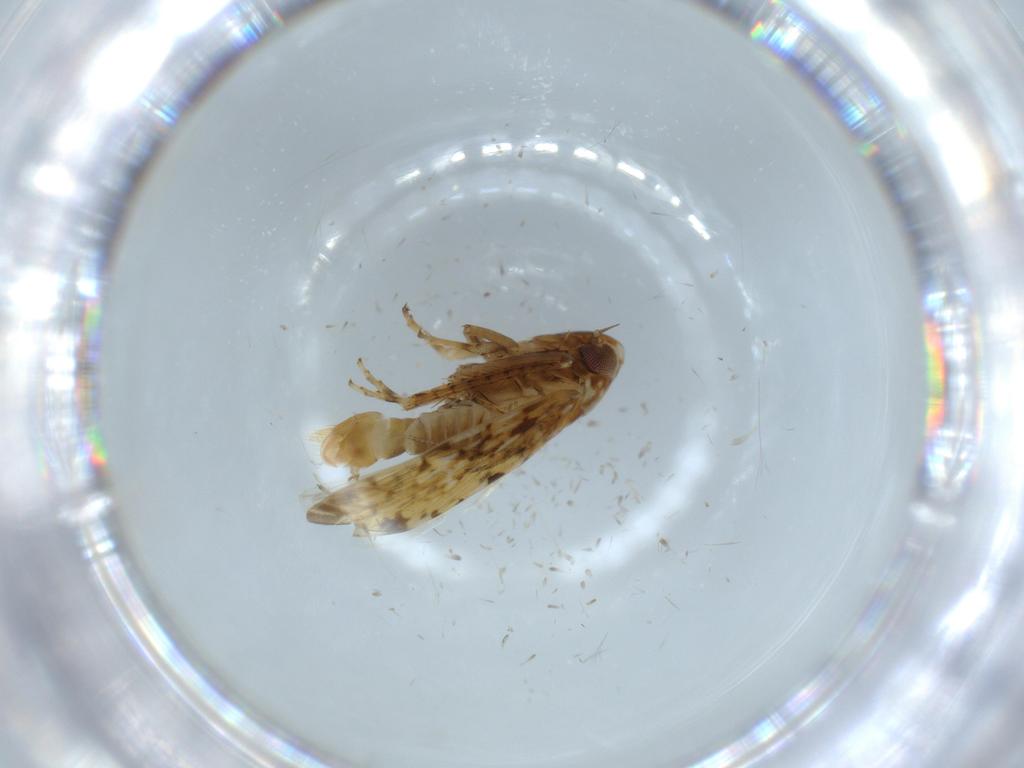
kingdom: Animalia
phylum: Arthropoda
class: Insecta
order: Hemiptera
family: Cicadellidae
